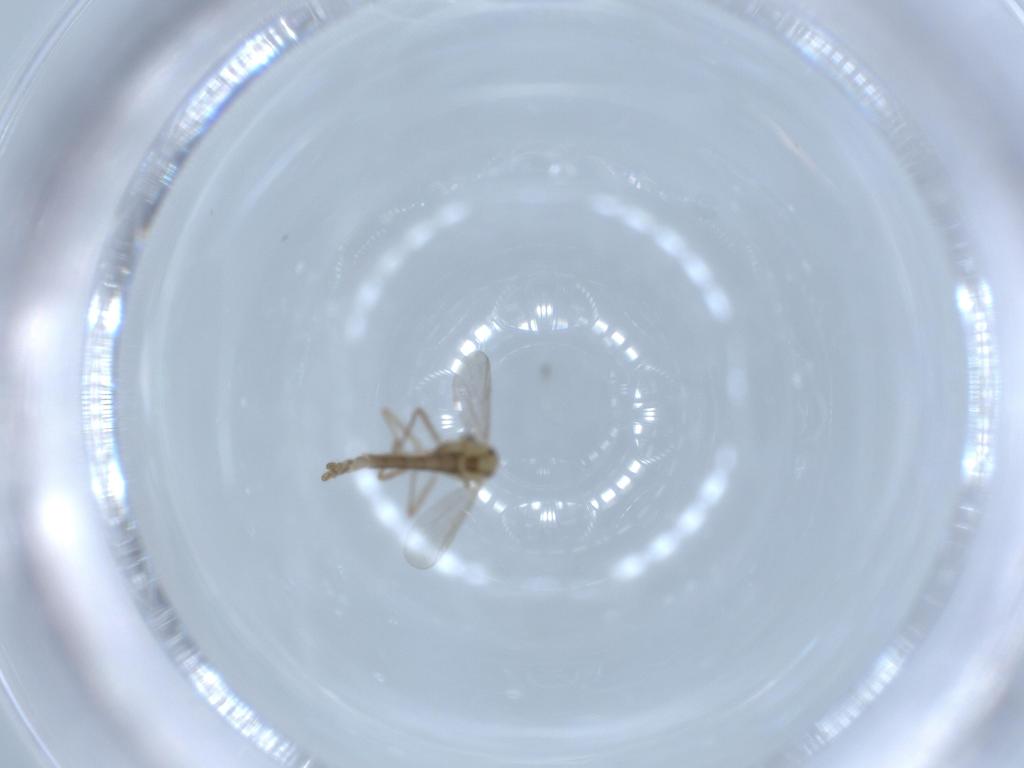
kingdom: Animalia
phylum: Arthropoda
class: Insecta
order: Diptera
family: Chironomidae
